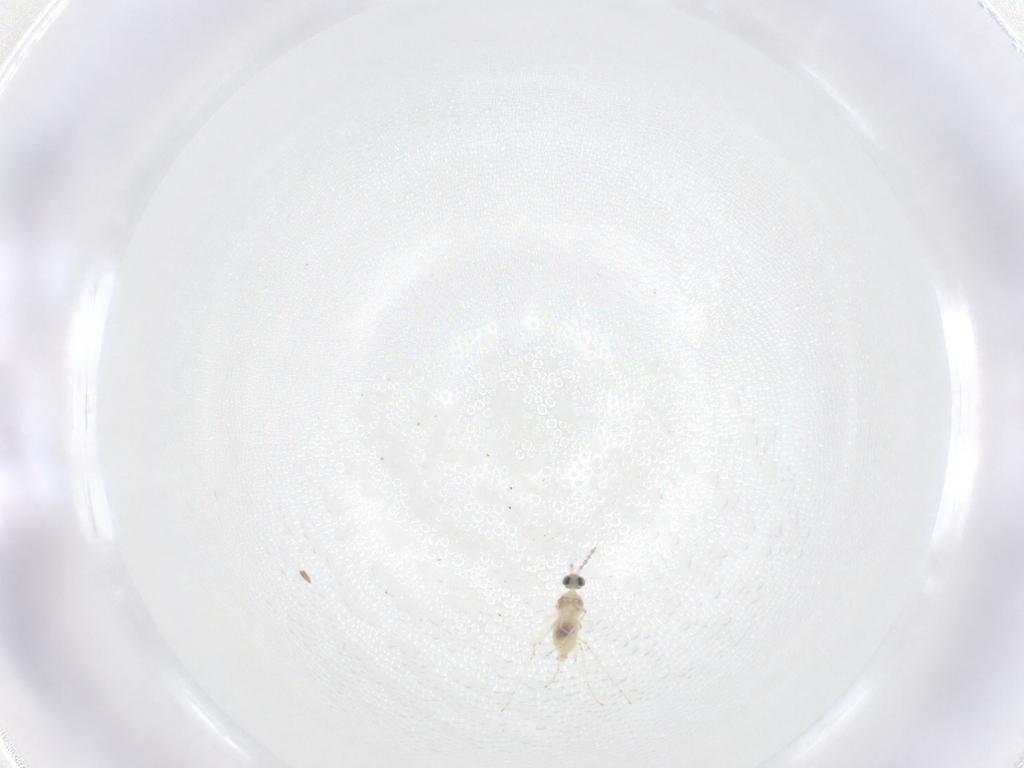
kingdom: Animalia
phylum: Arthropoda
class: Insecta
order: Diptera
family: Cecidomyiidae
